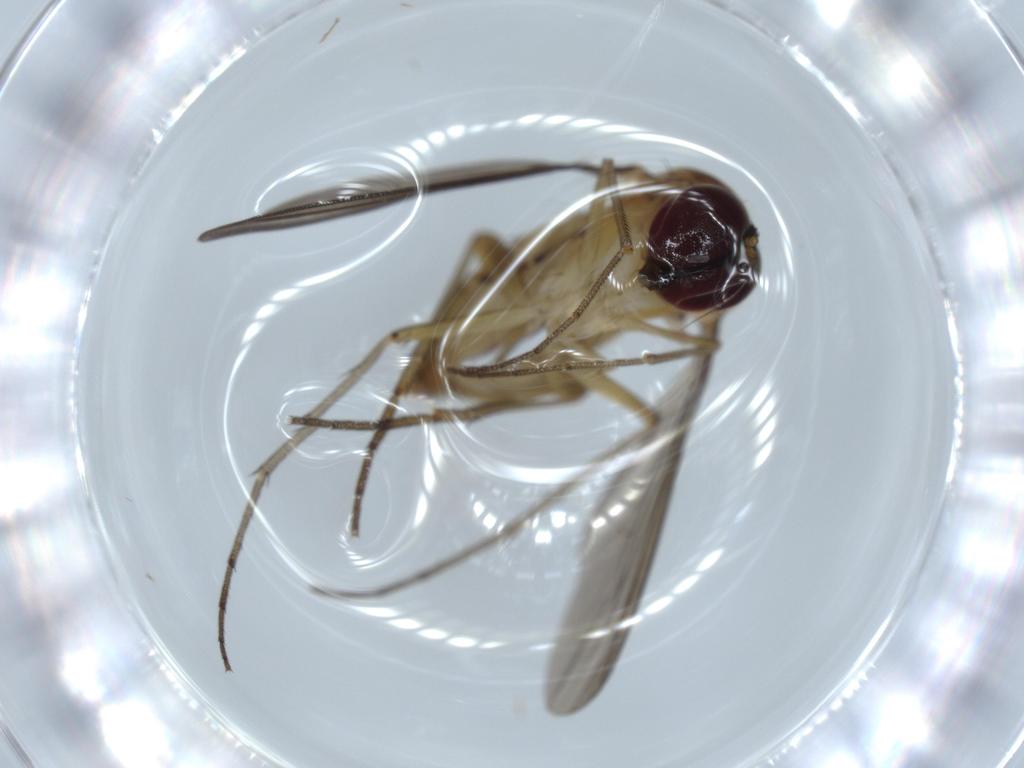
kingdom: Animalia
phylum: Arthropoda
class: Insecta
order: Diptera
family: Dolichopodidae
